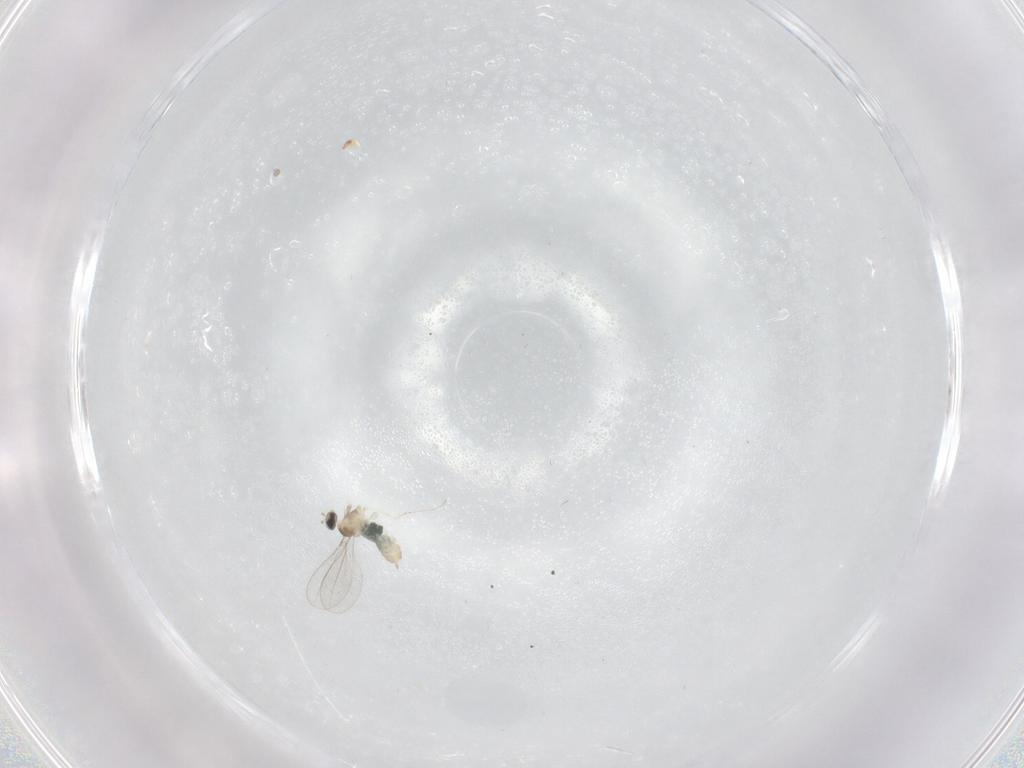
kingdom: Animalia
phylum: Arthropoda
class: Insecta
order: Diptera
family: Cecidomyiidae
